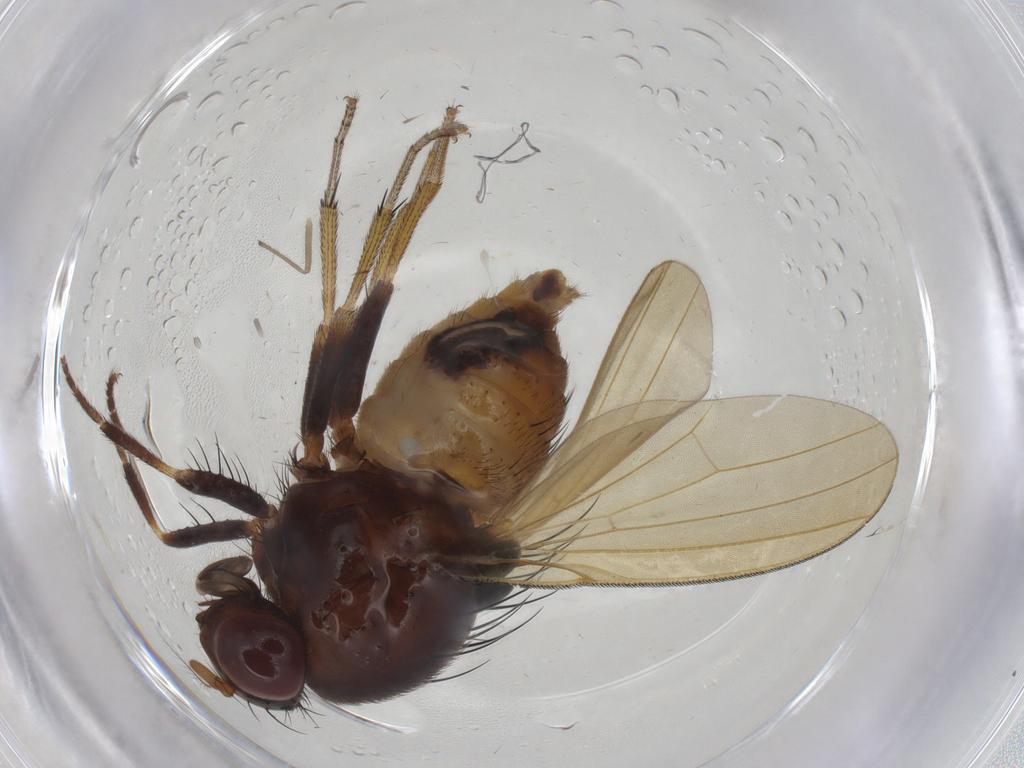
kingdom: Animalia
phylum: Arthropoda
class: Insecta
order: Diptera
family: Limoniidae
